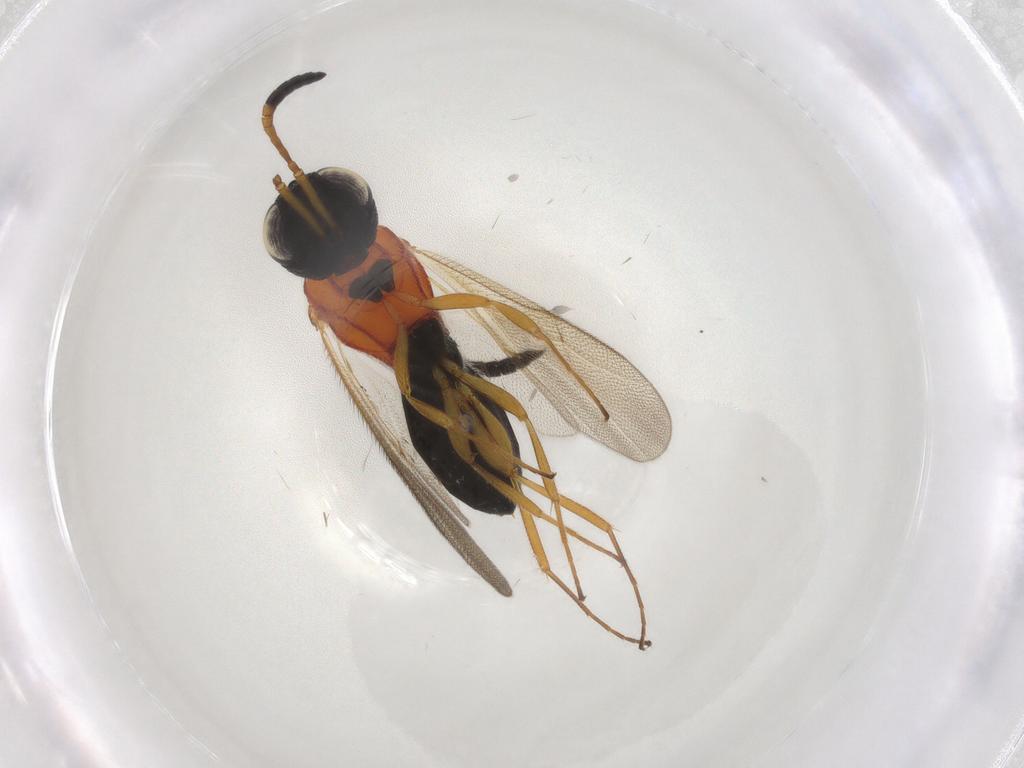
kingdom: Animalia
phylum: Arthropoda
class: Insecta
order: Hymenoptera
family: Scelionidae
